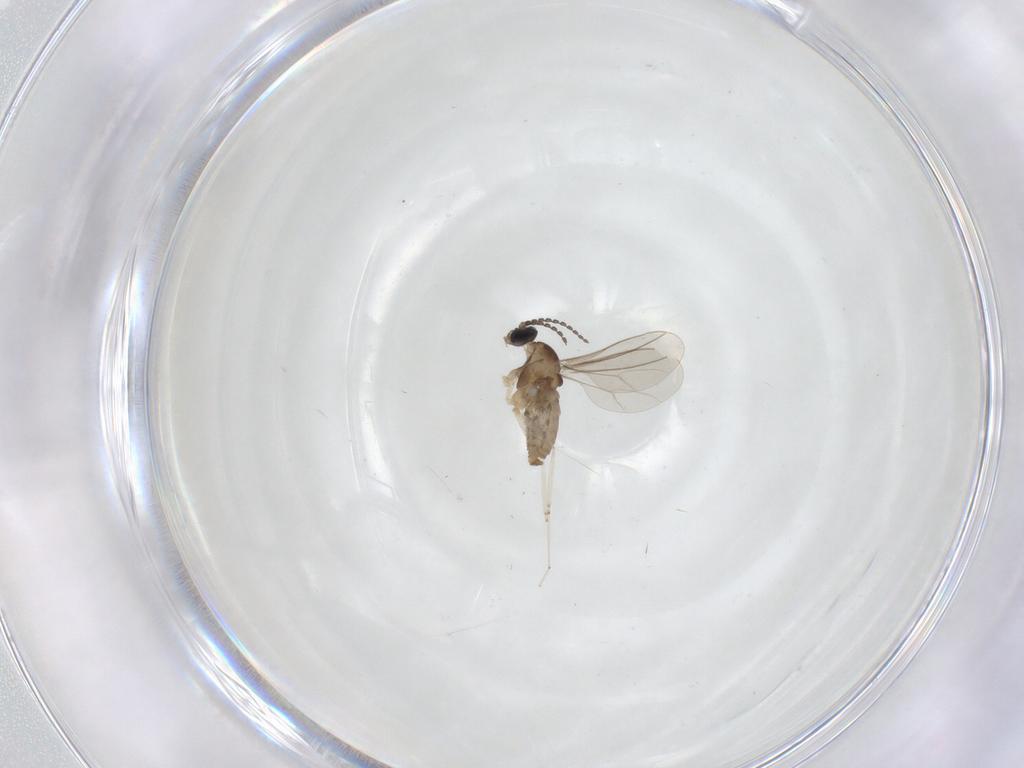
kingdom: Animalia
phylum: Arthropoda
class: Insecta
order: Diptera
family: Cecidomyiidae
